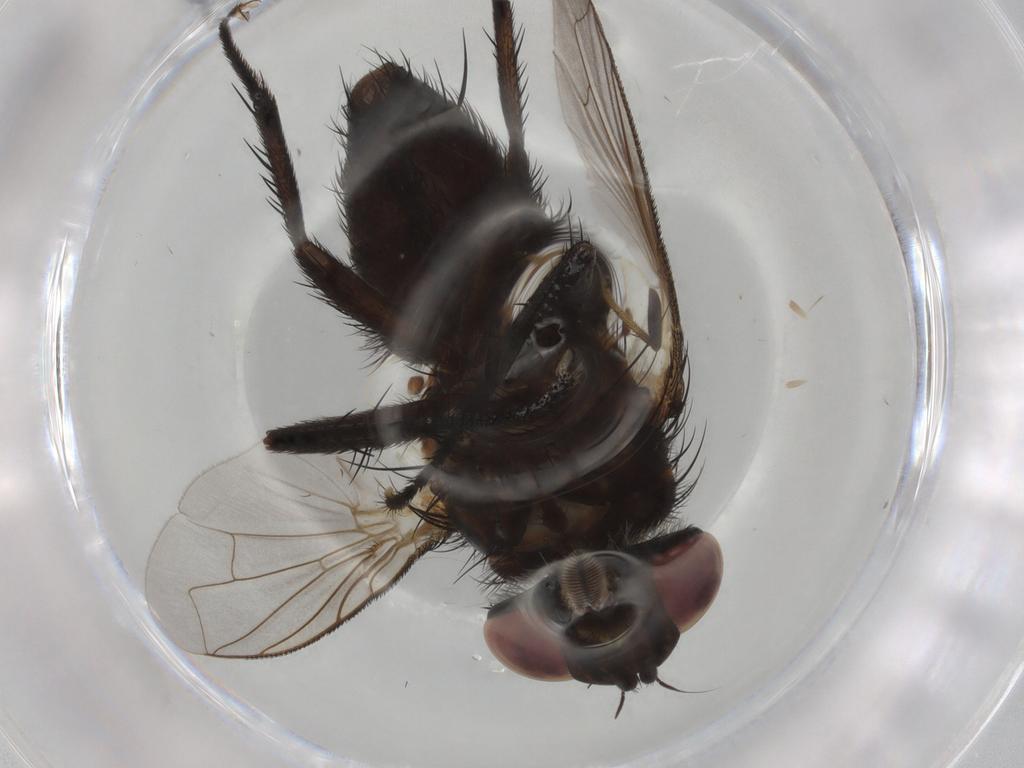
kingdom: Animalia
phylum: Arthropoda
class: Insecta
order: Diptera
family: Tachinidae
